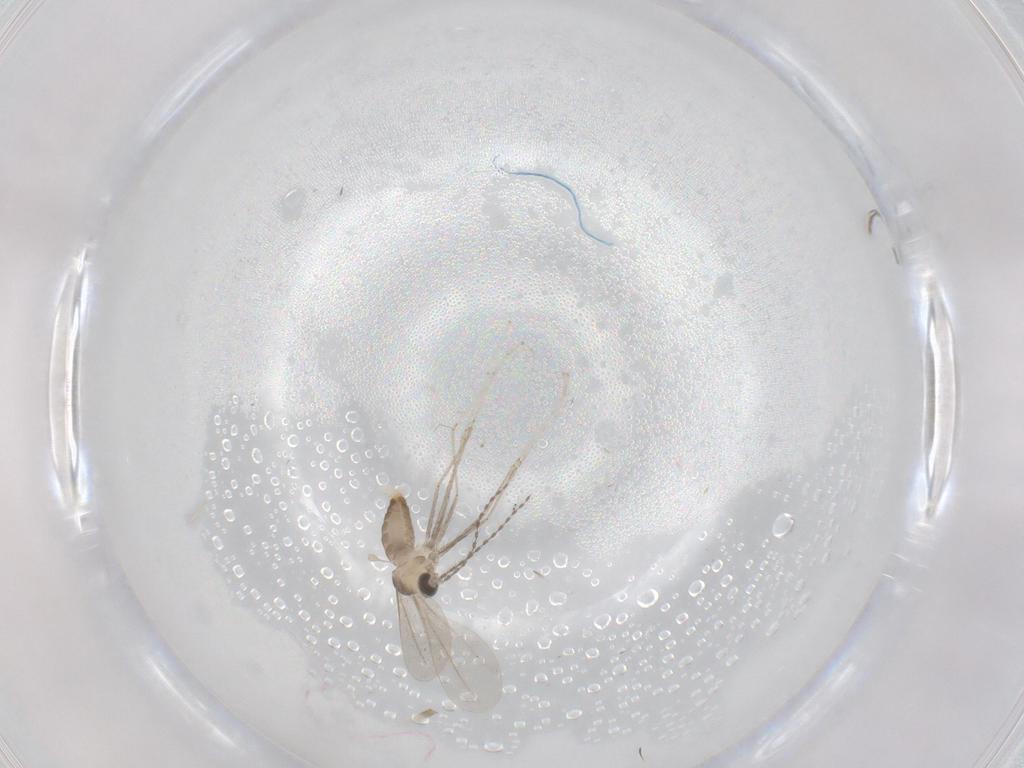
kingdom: Animalia
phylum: Arthropoda
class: Insecta
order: Diptera
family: Cecidomyiidae
